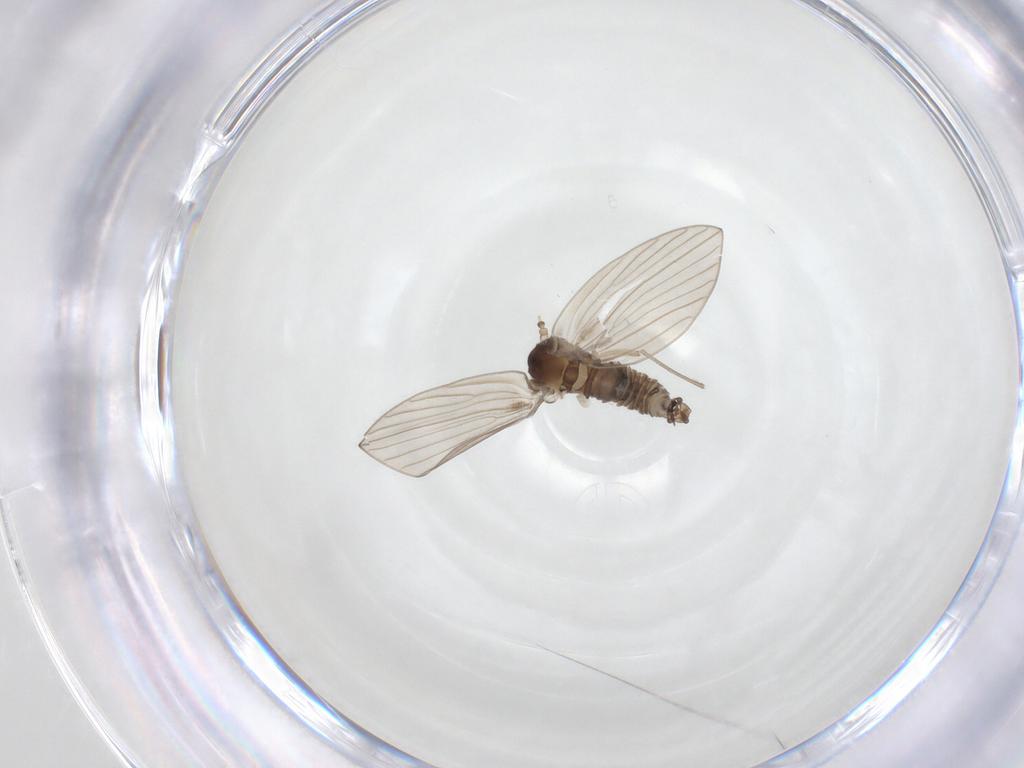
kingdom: Animalia
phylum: Arthropoda
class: Insecta
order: Diptera
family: Psychodidae
